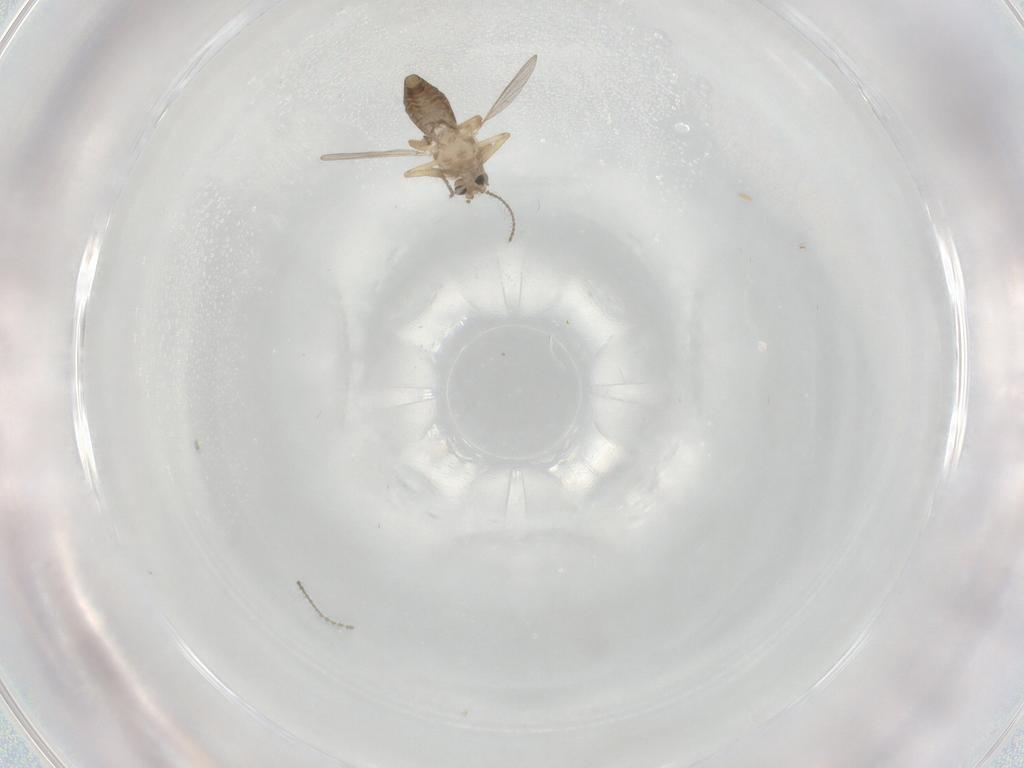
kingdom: Animalia
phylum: Arthropoda
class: Insecta
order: Diptera
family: Ceratopogonidae
